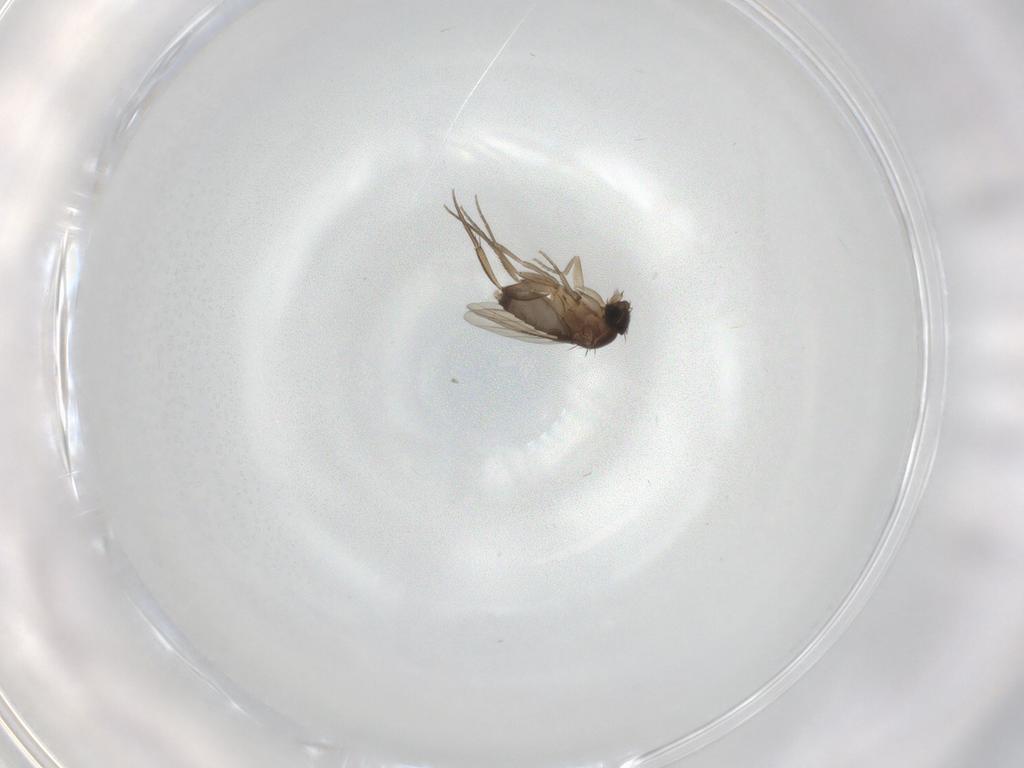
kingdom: Animalia
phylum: Arthropoda
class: Insecta
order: Diptera
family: Phoridae
